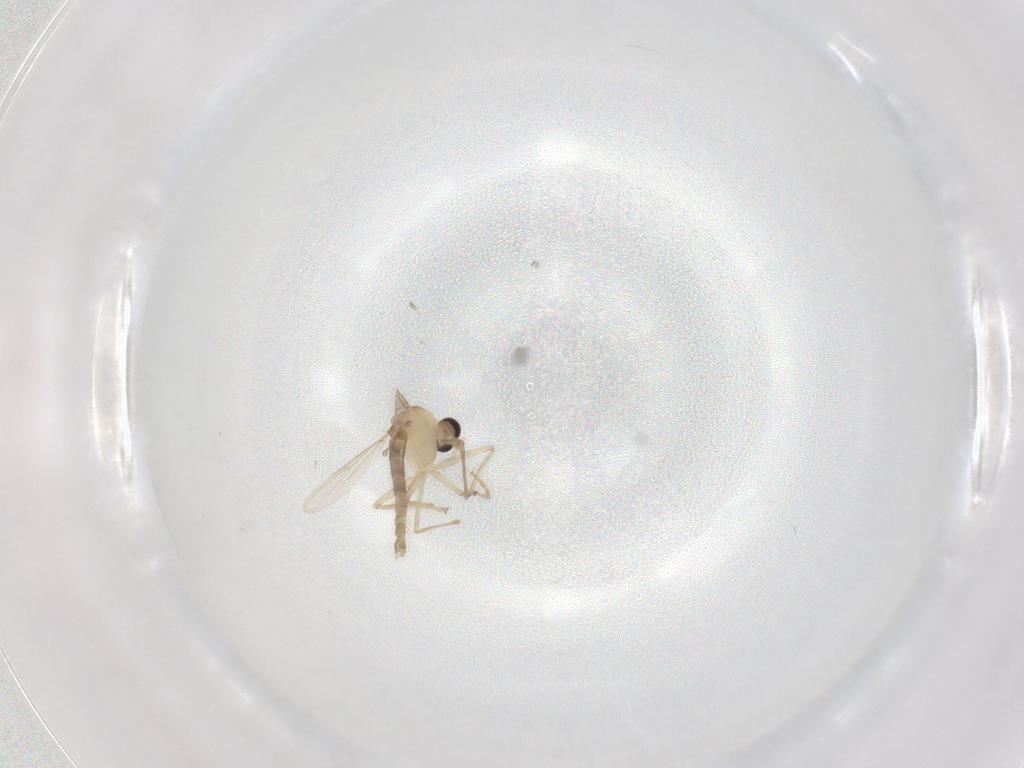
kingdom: Animalia
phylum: Arthropoda
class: Insecta
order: Diptera
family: Chironomidae
